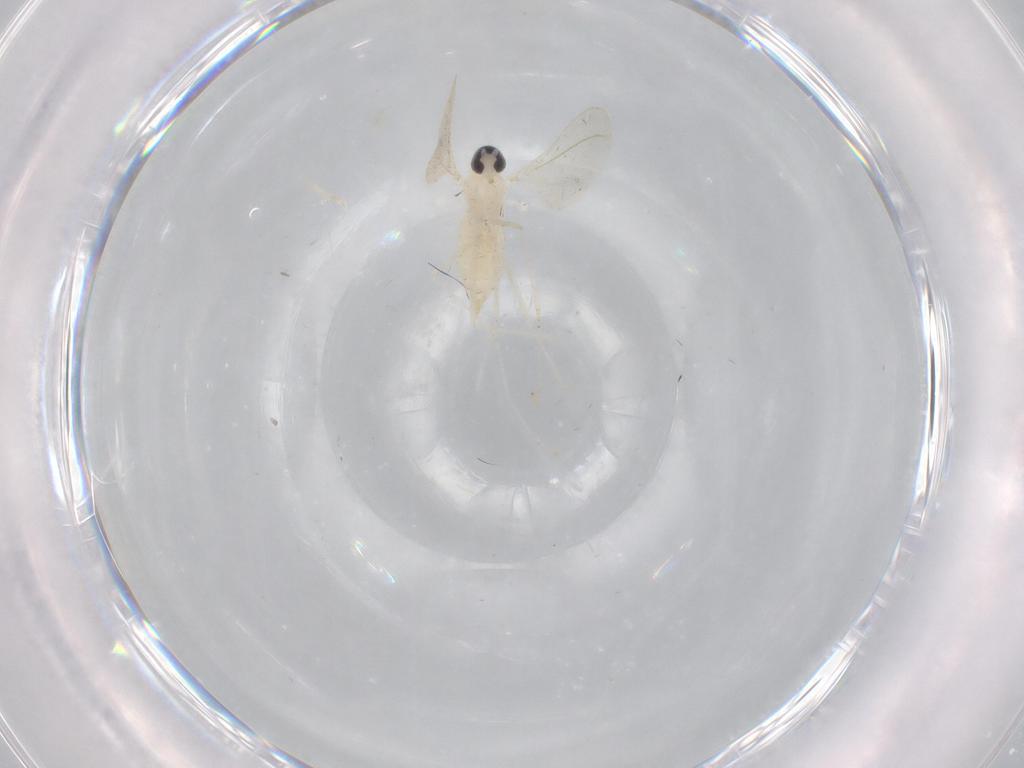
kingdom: Animalia
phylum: Arthropoda
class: Insecta
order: Diptera
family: Cecidomyiidae
